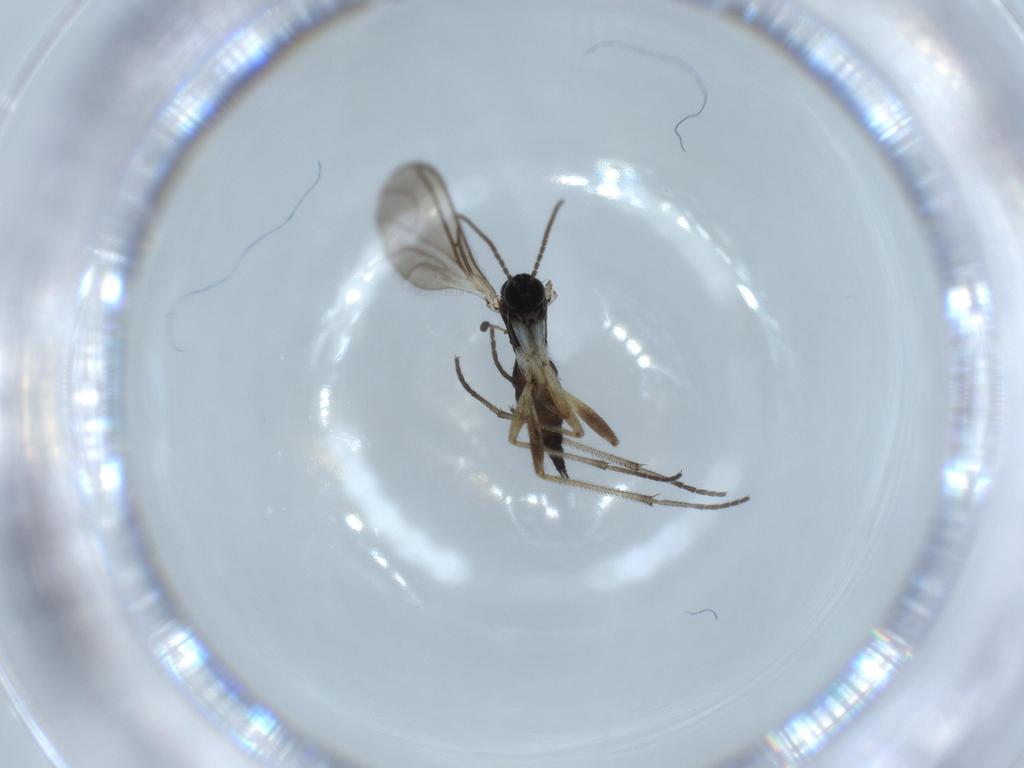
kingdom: Animalia
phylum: Arthropoda
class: Insecta
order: Diptera
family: Sciaridae
